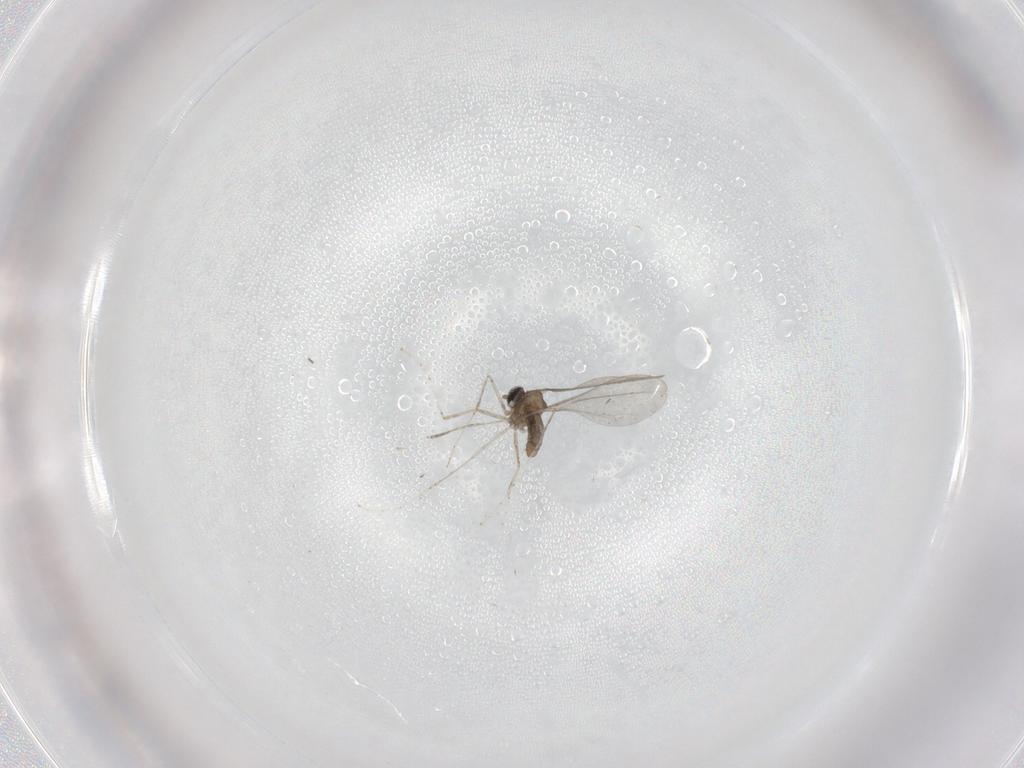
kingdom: Animalia
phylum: Arthropoda
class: Insecta
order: Diptera
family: Cecidomyiidae
